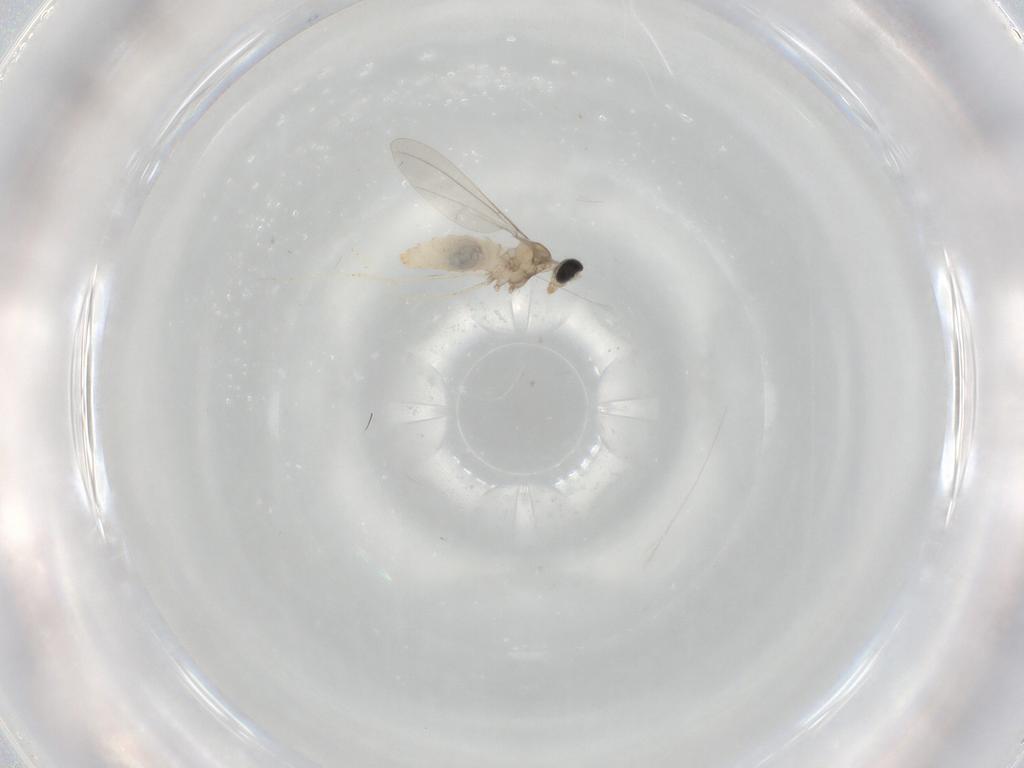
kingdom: Animalia
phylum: Arthropoda
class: Insecta
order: Diptera
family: Cecidomyiidae
